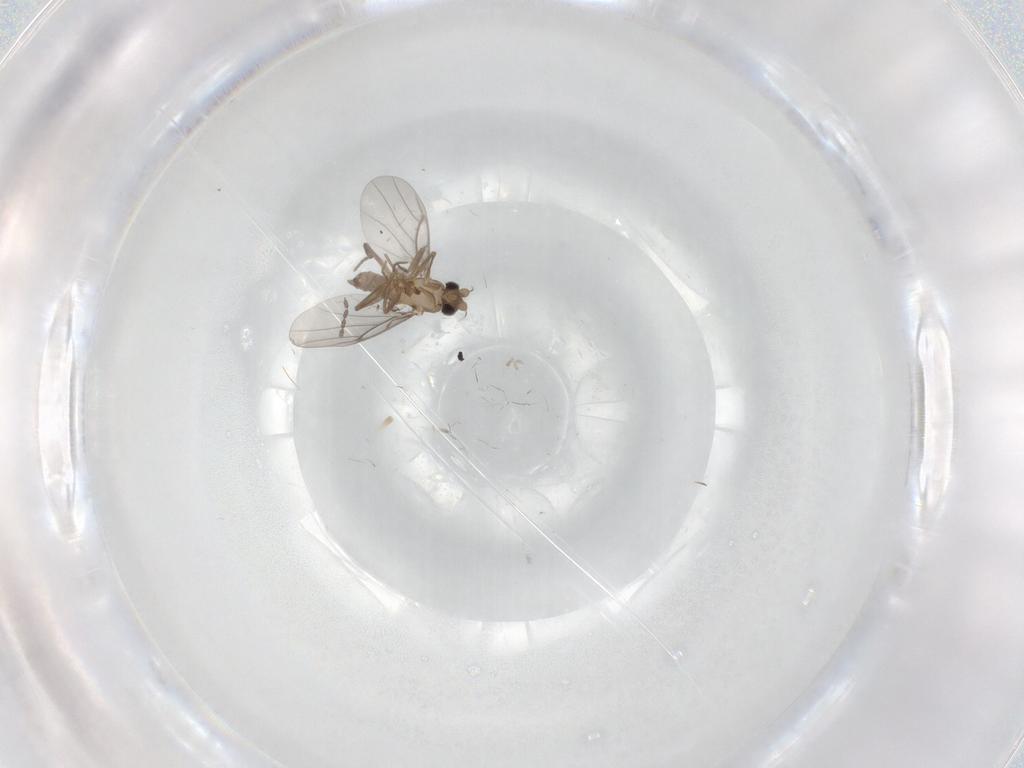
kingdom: Animalia
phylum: Arthropoda
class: Insecta
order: Diptera
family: Cecidomyiidae
